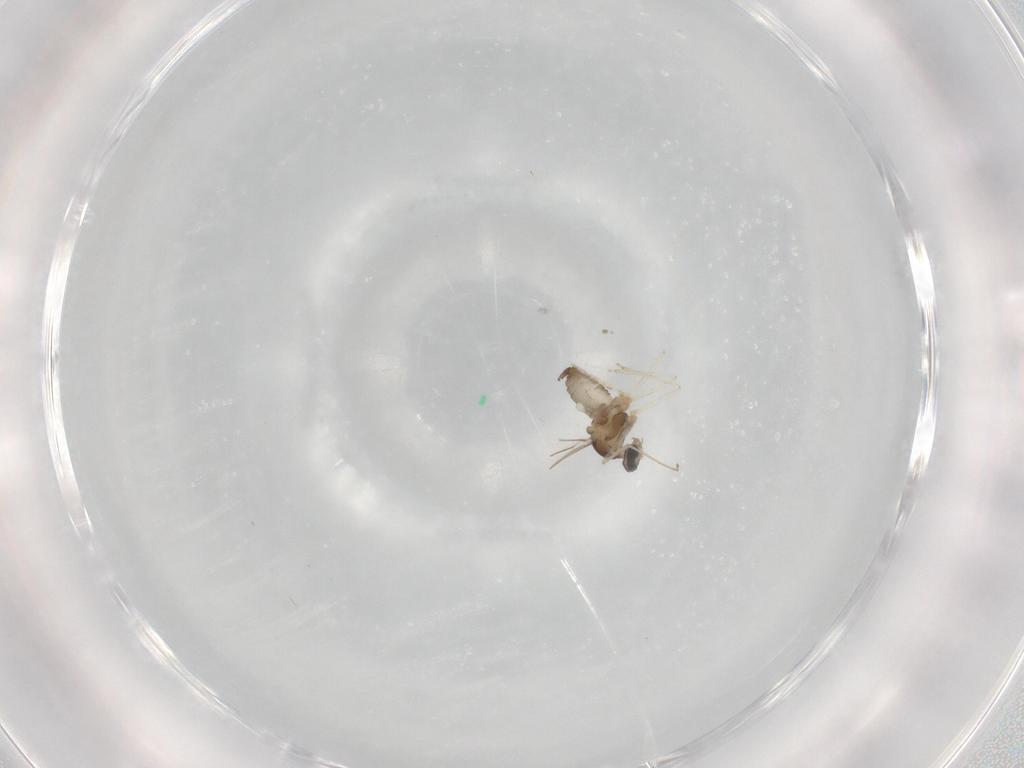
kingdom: Animalia
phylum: Arthropoda
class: Insecta
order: Diptera
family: Cecidomyiidae
